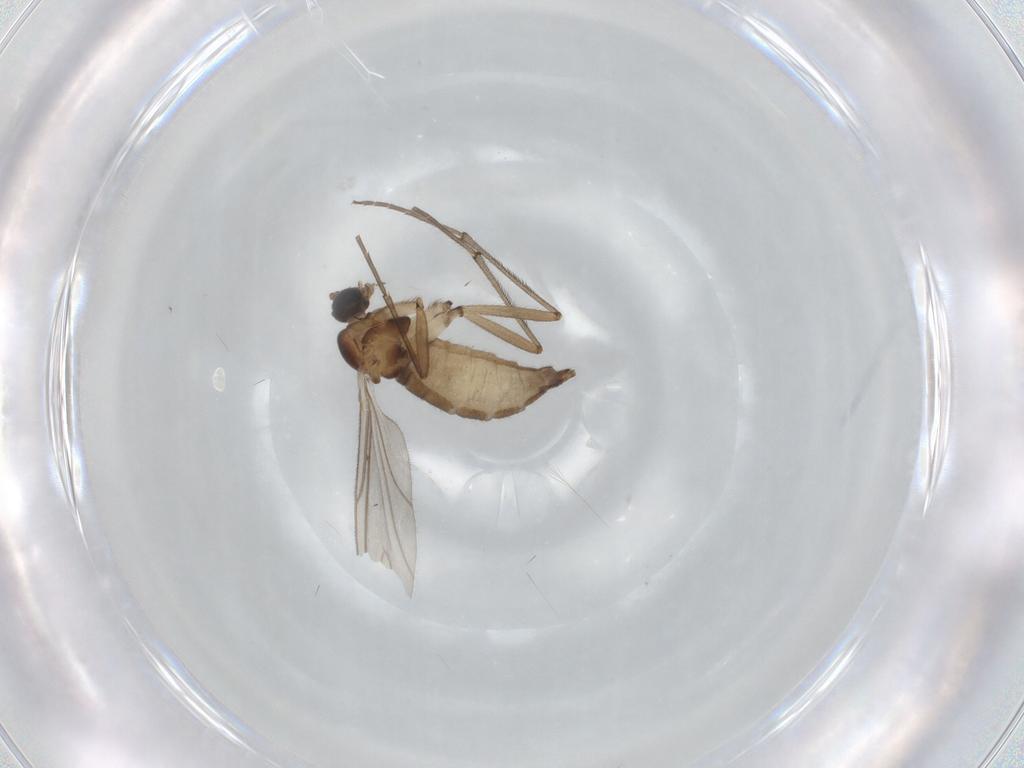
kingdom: Animalia
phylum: Arthropoda
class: Insecta
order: Diptera
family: Sciaridae
